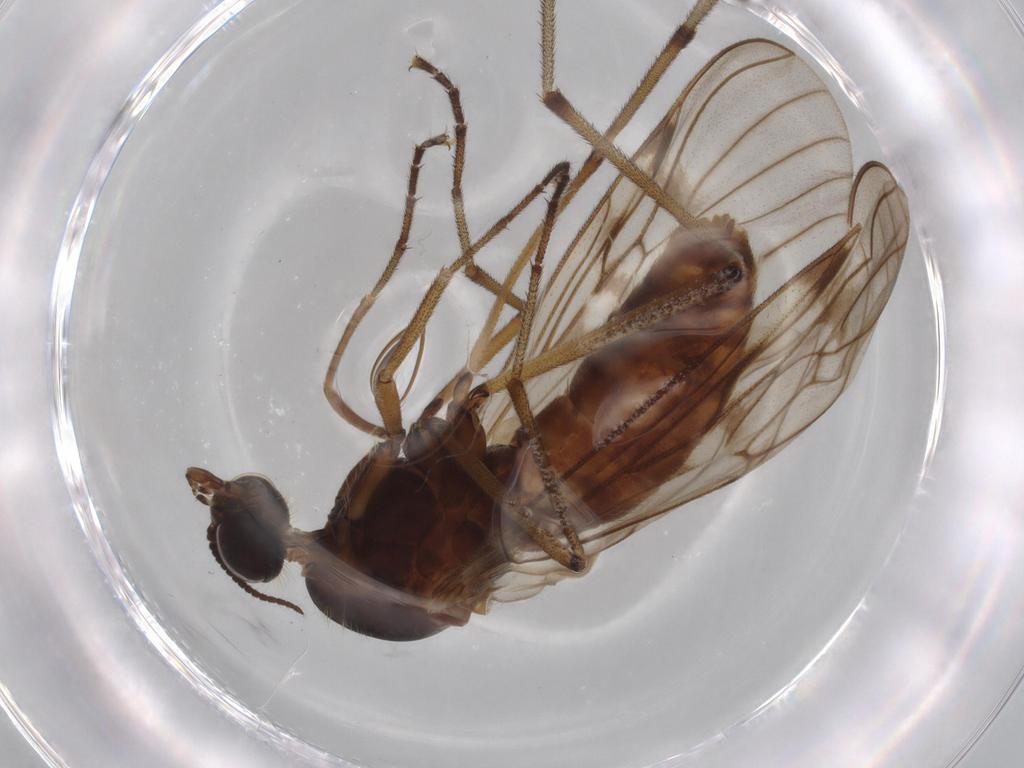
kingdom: Animalia
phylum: Arthropoda
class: Insecta
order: Diptera
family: Anisopodidae
